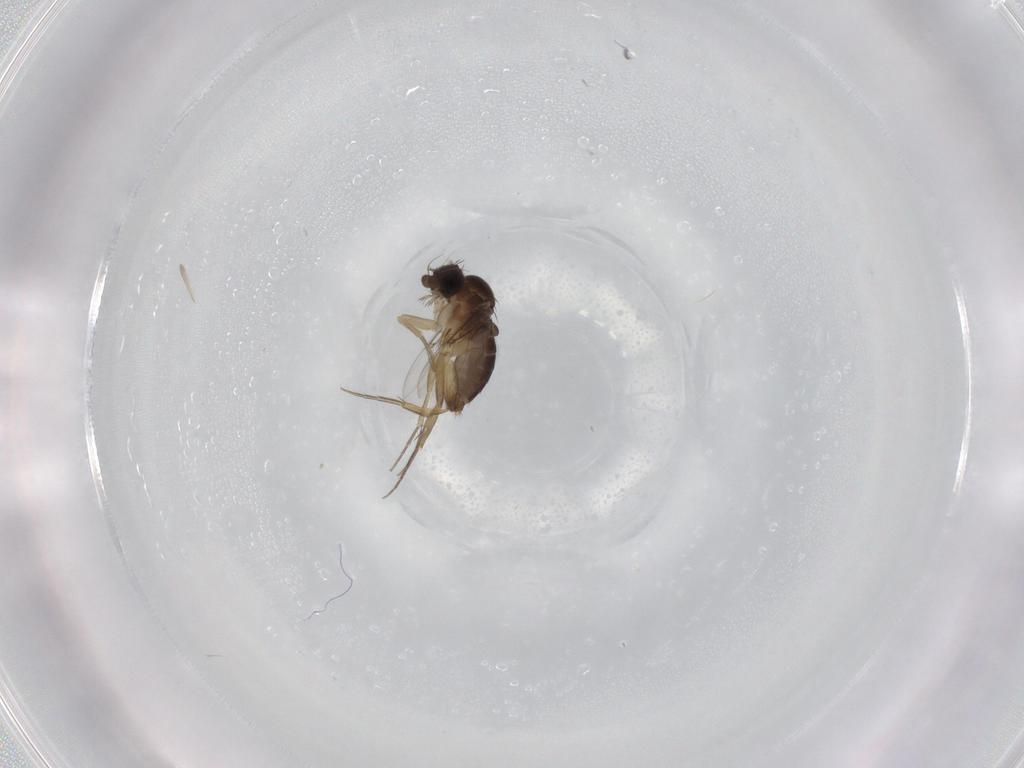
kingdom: Animalia
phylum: Arthropoda
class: Insecta
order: Diptera
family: Phoridae
